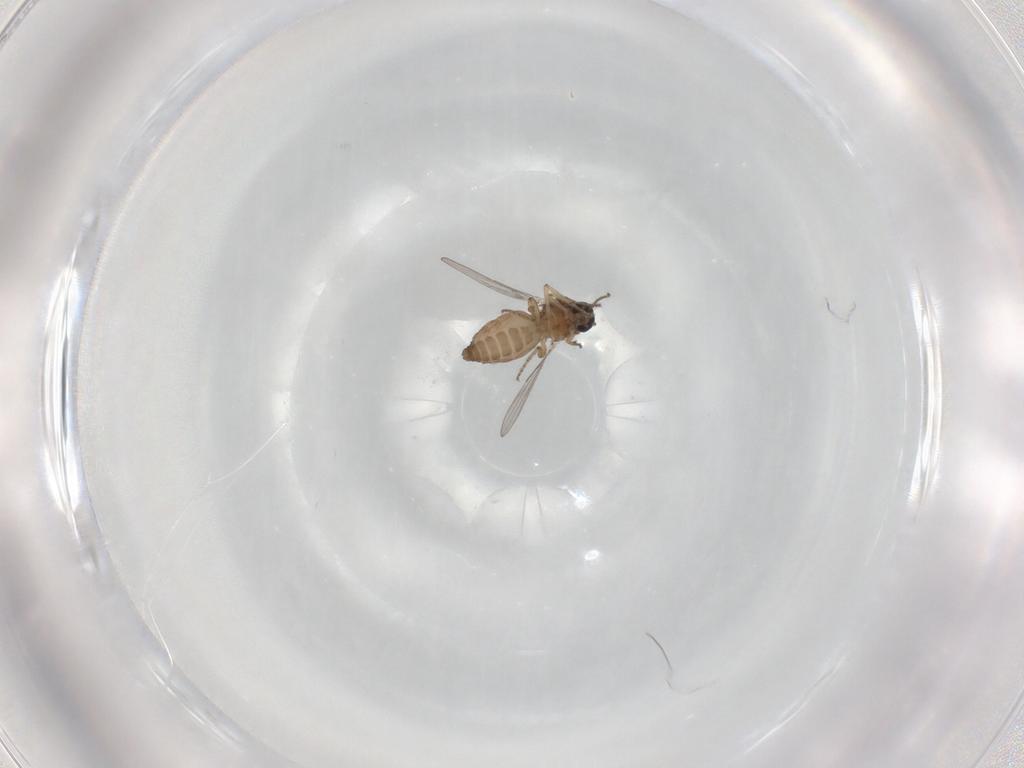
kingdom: Animalia
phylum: Arthropoda
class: Insecta
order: Diptera
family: Ceratopogonidae
